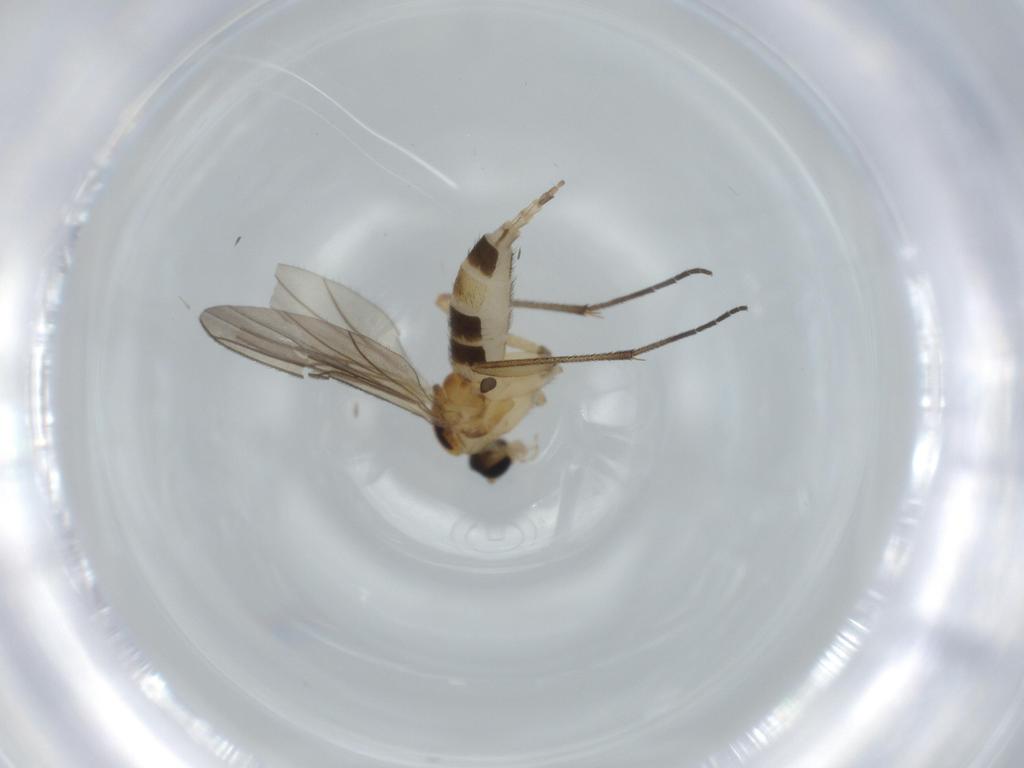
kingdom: Animalia
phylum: Arthropoda
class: Insecta
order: Diptera
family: Sciaridae
